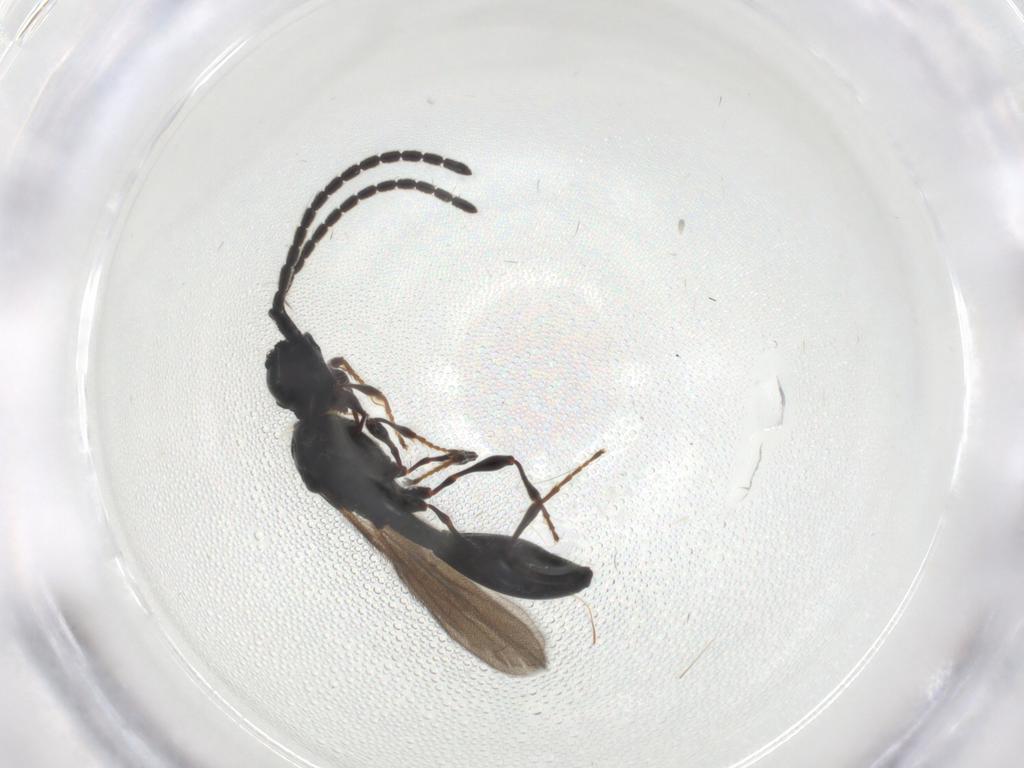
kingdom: Animalia
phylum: Arthropoda
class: Insecta
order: Hymenoptera
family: Diapriidae
